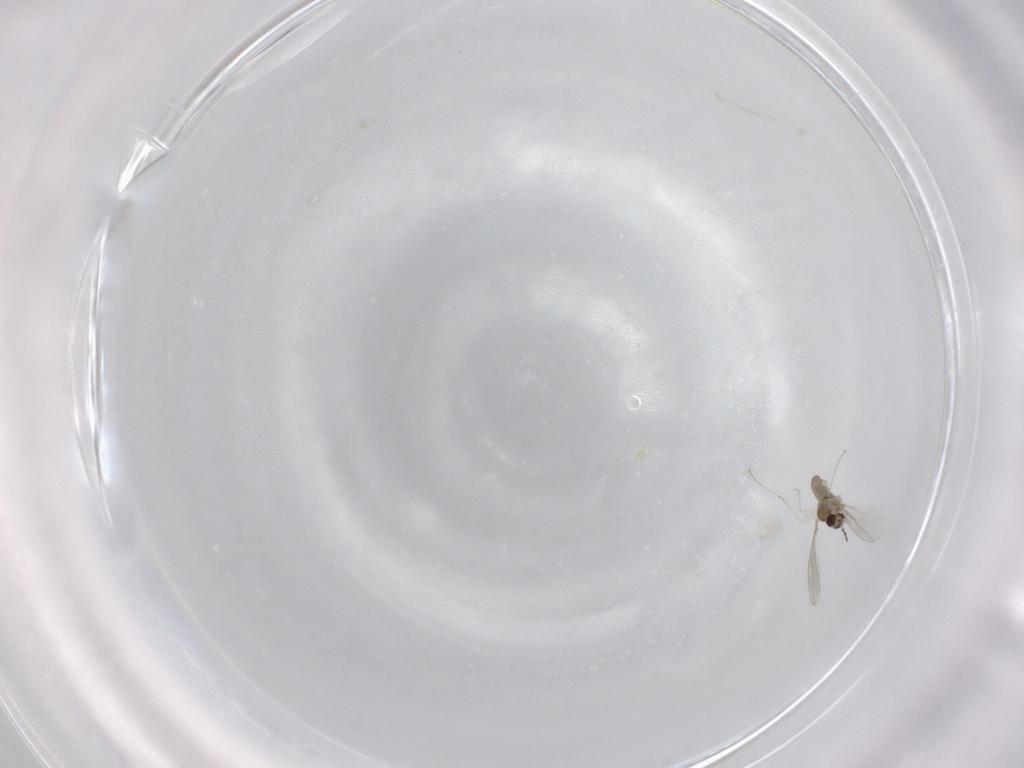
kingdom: Animalia
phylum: Arthropoda
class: Insecta
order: Diptera
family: Cecidomyiidae
